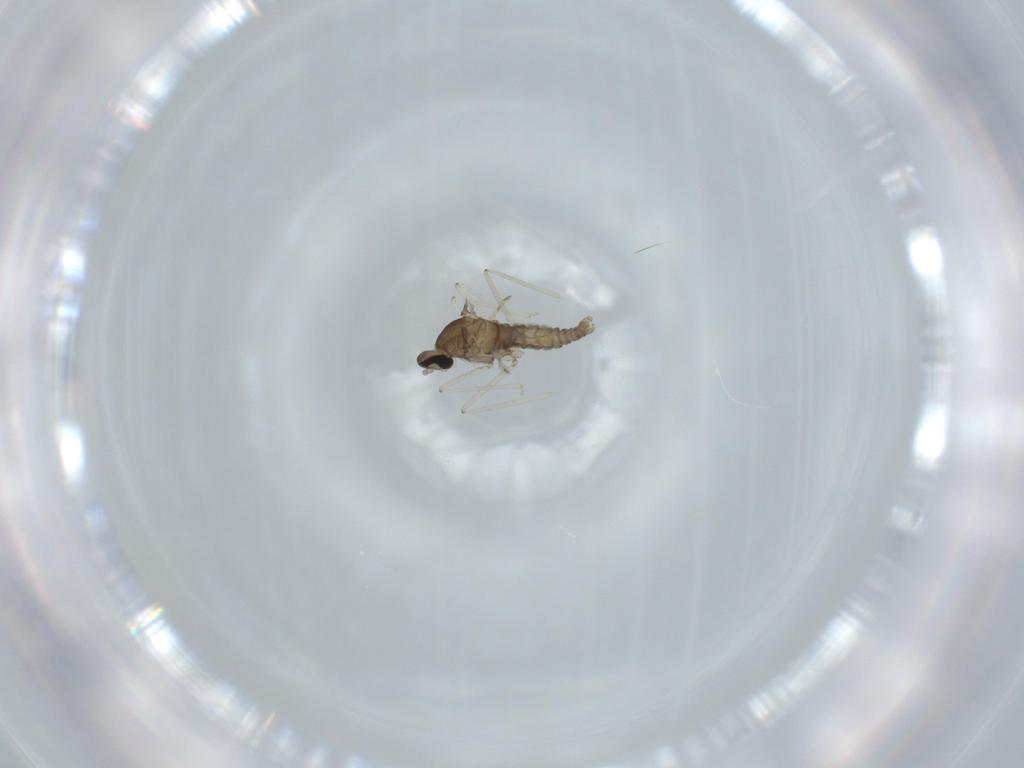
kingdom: Animalia
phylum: Arthropoda
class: Insecta
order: Diptera
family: Cecidomyiidae
